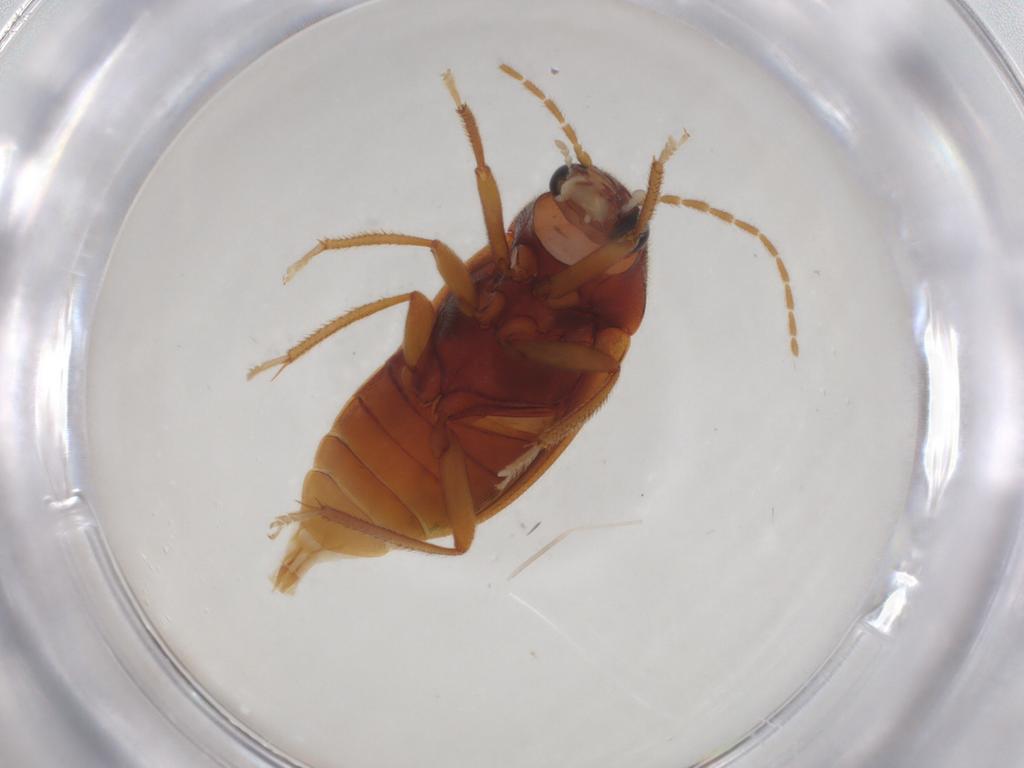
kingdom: Animalia
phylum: Arthropoda
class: Insecta
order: Coleoptera
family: Ptilodactylidae
